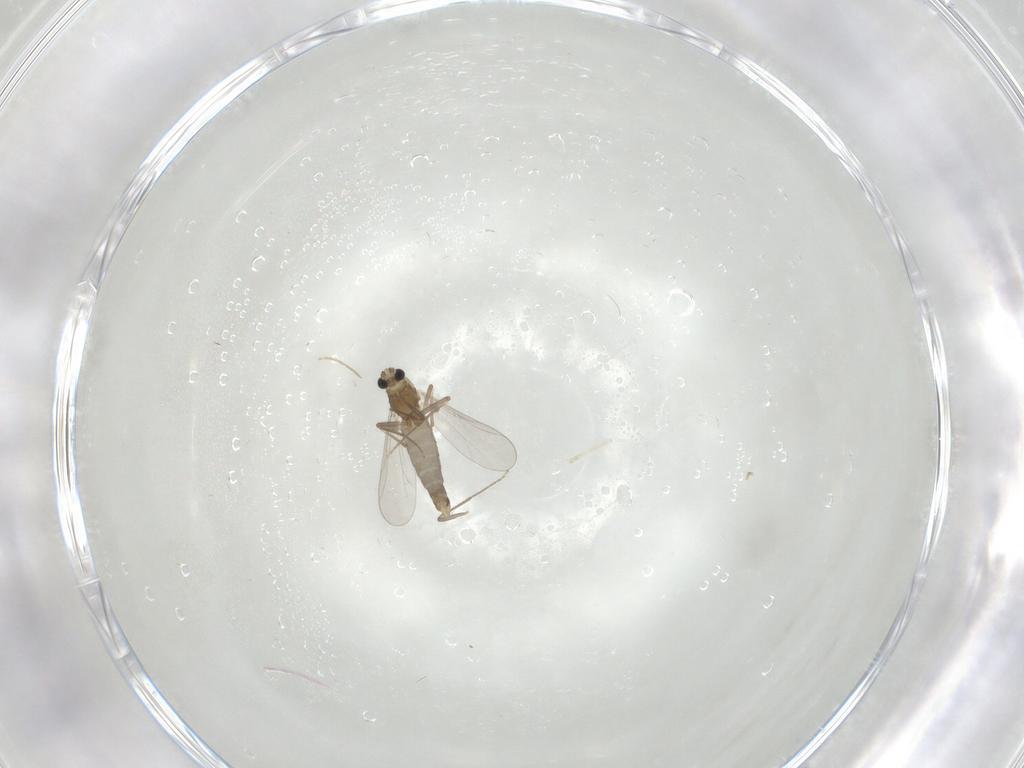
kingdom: Animalia
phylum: Arthropoda
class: Insecta
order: Diptera
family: Chironomidae
